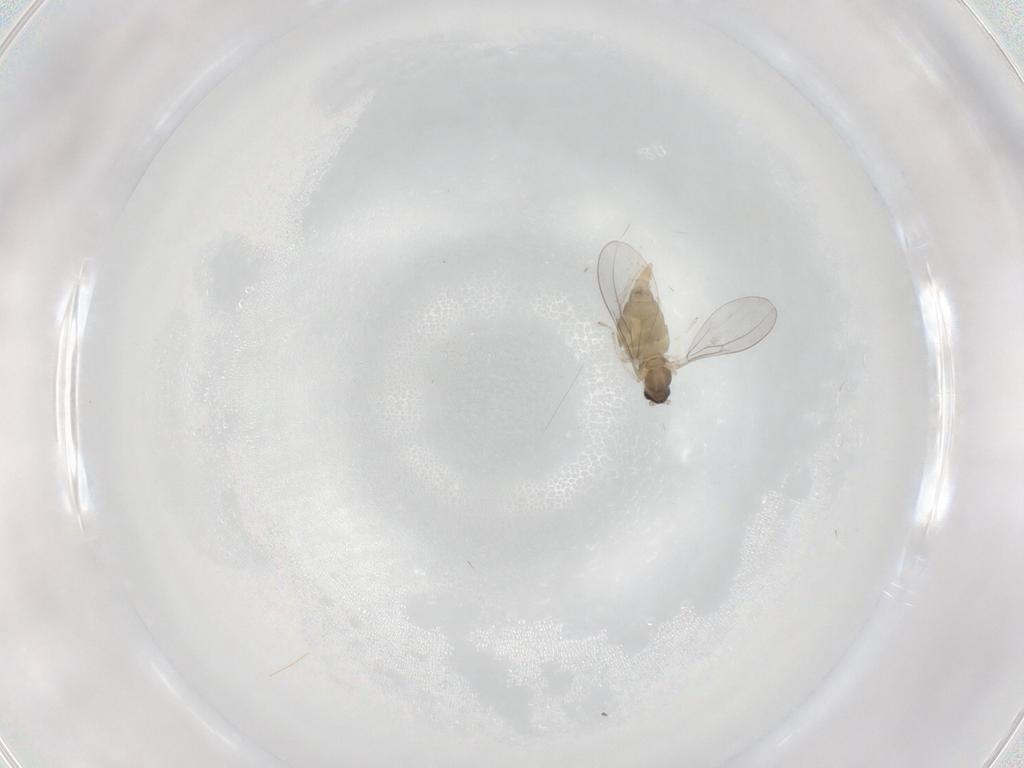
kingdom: Animalia
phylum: Arthropoda
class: Insecta
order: Diptera
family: Cecidomyiidae
